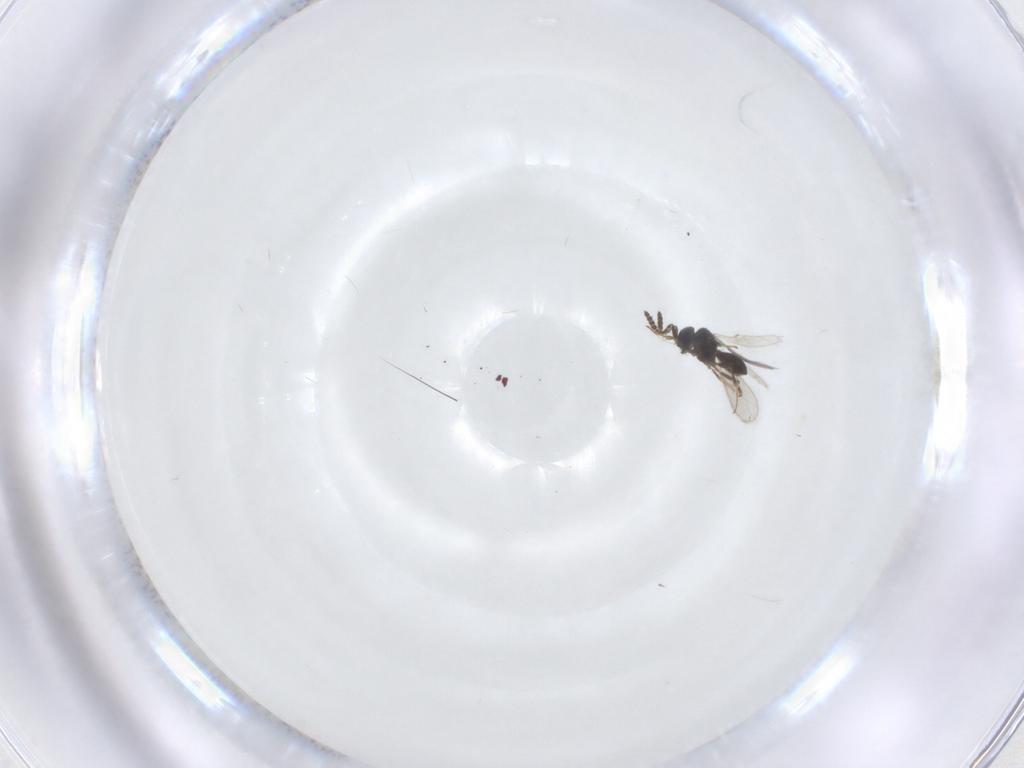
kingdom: Animalia
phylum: Arthropoda
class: Insecta
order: Hymenoptera
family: Scelionidae
